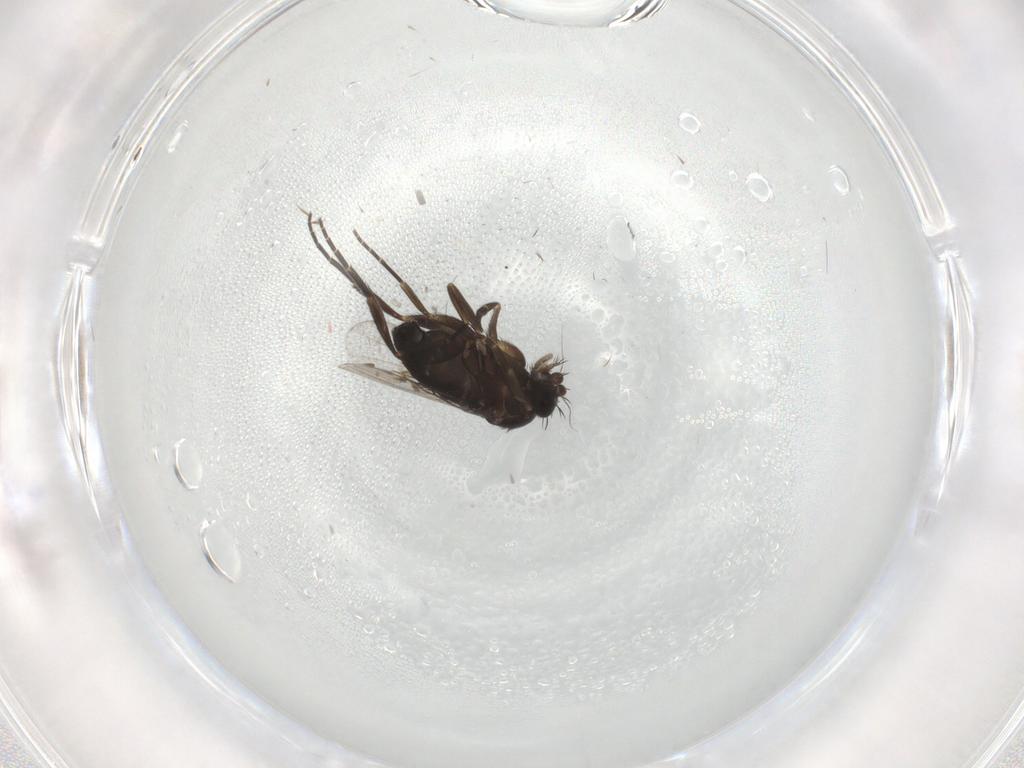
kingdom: Animalia
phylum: Arthropoda
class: Insecta
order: Diptera
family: Phoridae
